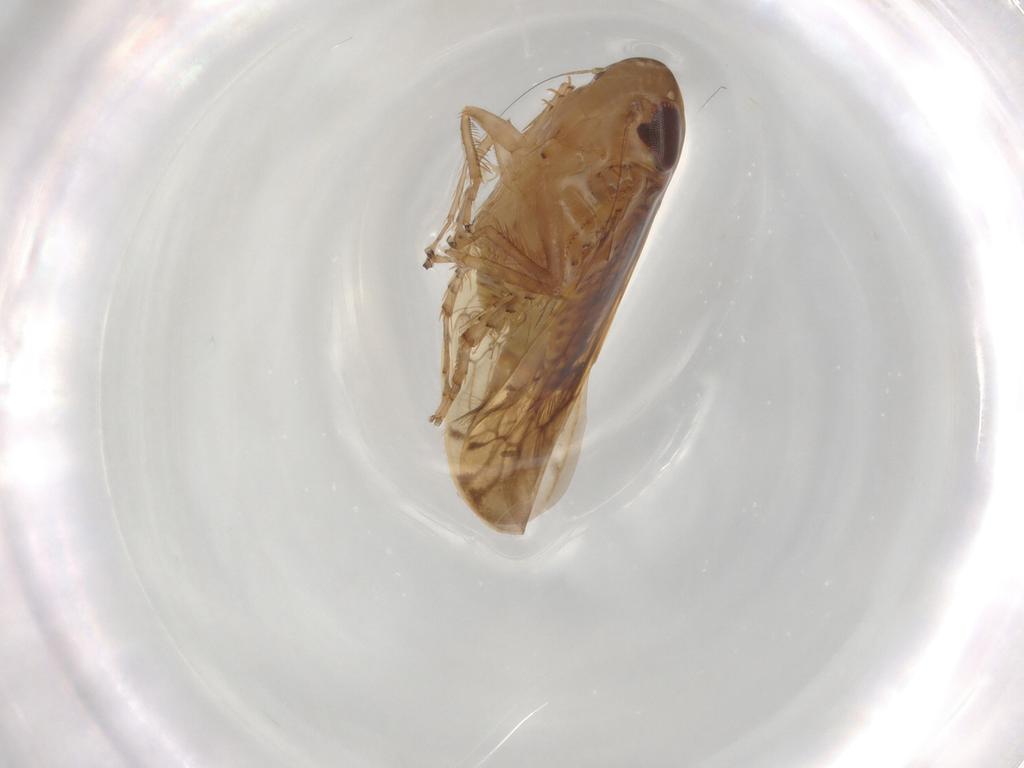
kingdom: Animalia
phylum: Arthropoda
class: Insecta
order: Hemiptera
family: Cicadellidae
